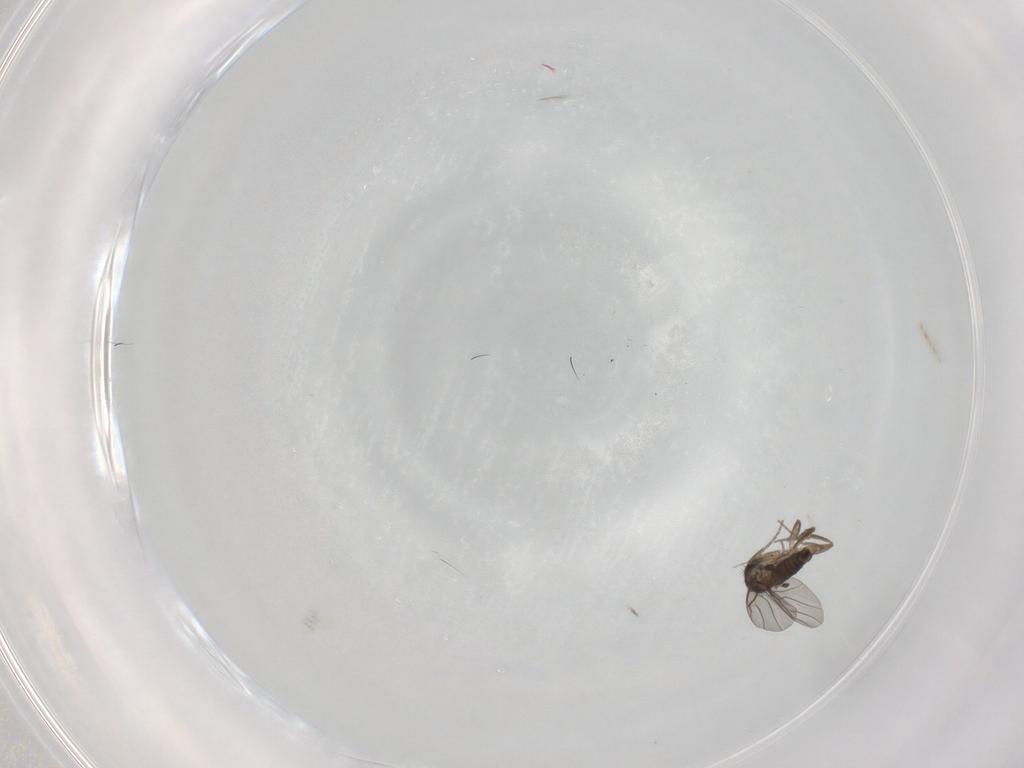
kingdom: Animalia
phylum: Arthropoda
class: Insecta
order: Diptera
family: Phoridae
